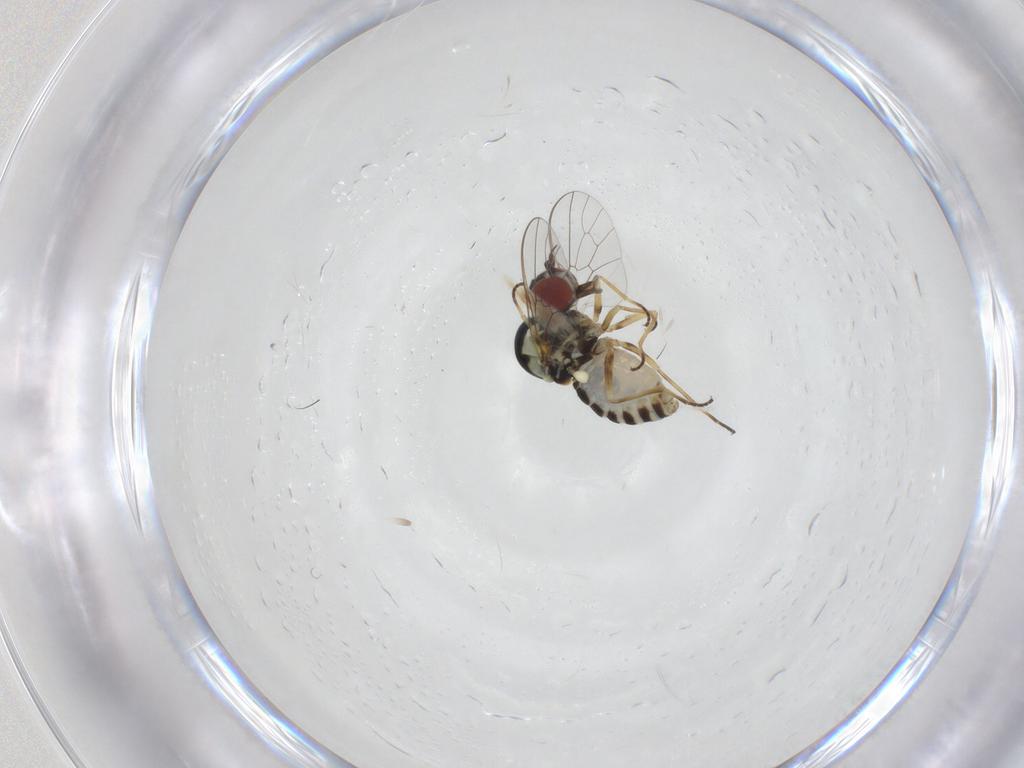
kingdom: Animalia
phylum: Arthropoda
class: Insecta
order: Diptera
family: Bombyliidae
